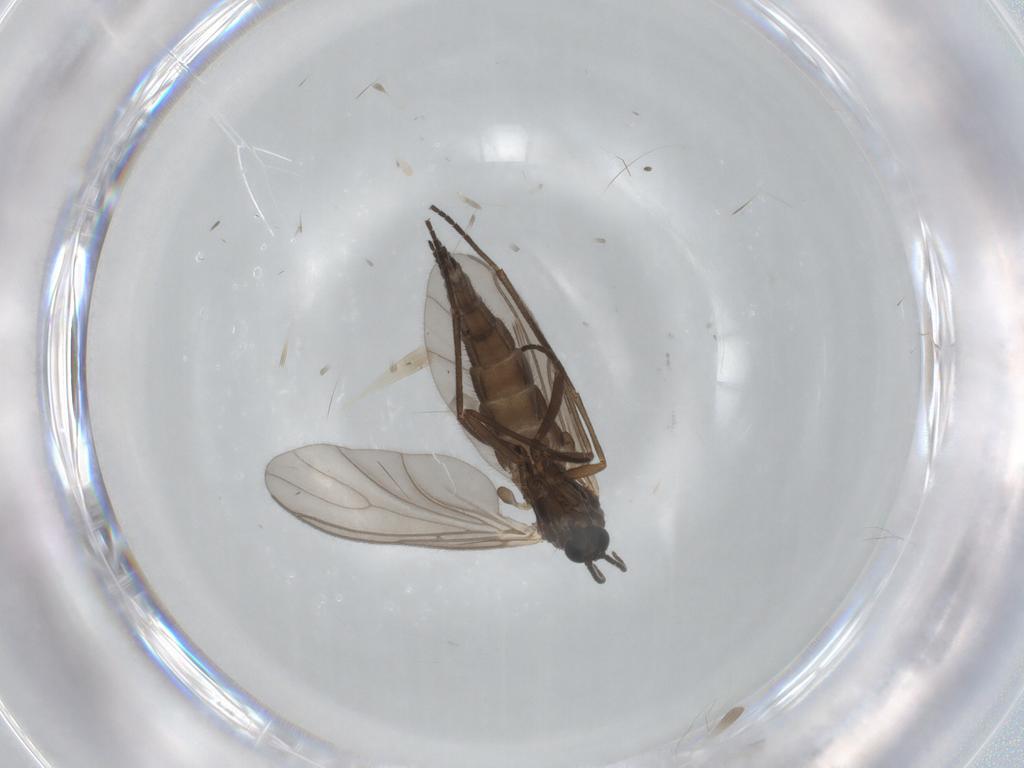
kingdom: Animalia
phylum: Arthropoda
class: Insecta
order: Diptera
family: Sciaridae
